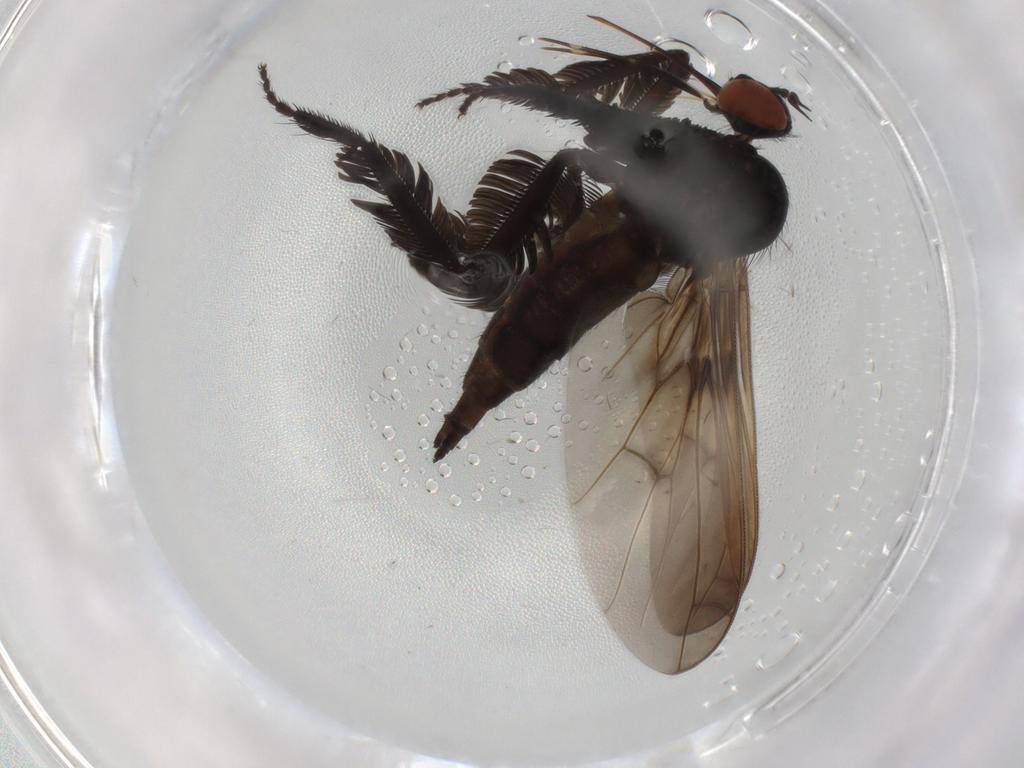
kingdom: Animalia
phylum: Arthropoda
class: Insecta
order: Diptera
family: Empididae
